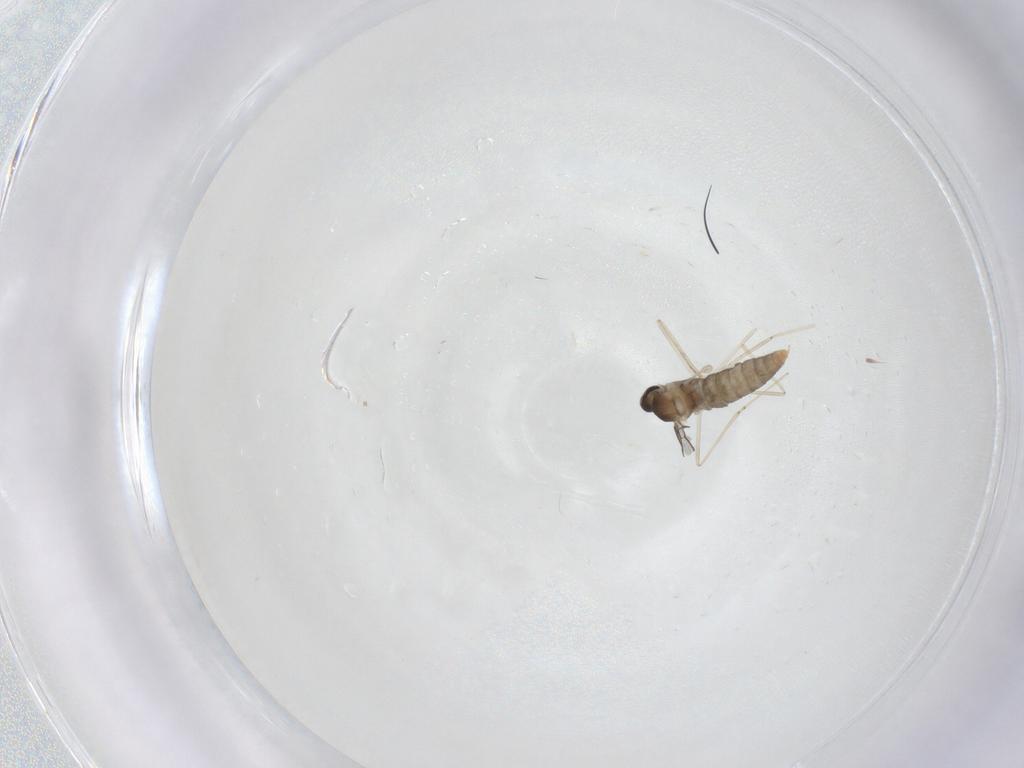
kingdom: Animalia
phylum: Arthropoda
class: Insecta
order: Diptera
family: Cecidomyiidae
